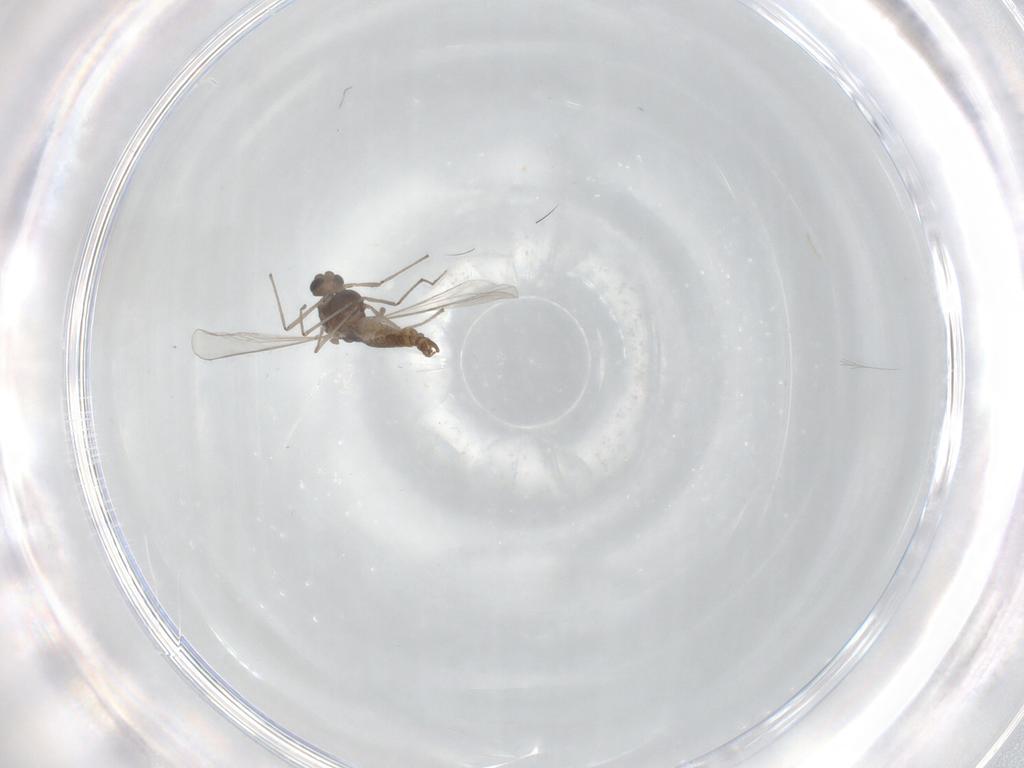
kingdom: Animalia
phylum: Arthropoda
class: Insecta
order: Diptera
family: Chironomidae
